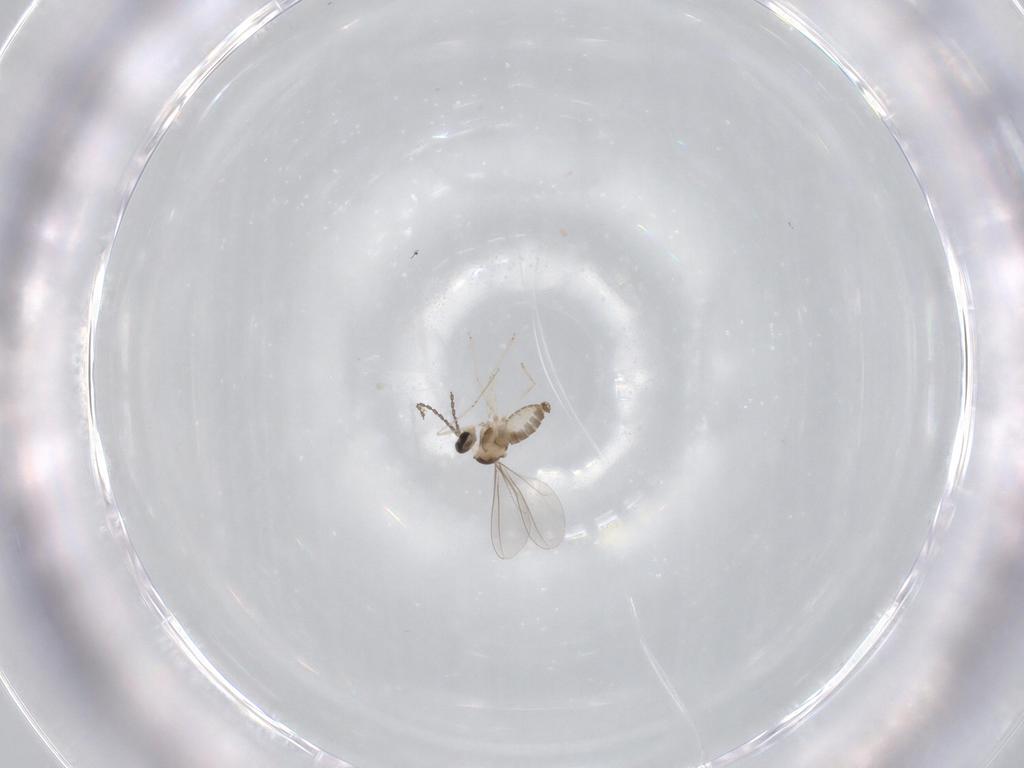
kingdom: Animalia
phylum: Arthropoda
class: Insecta
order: Diptera
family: Cecidomyiidae
